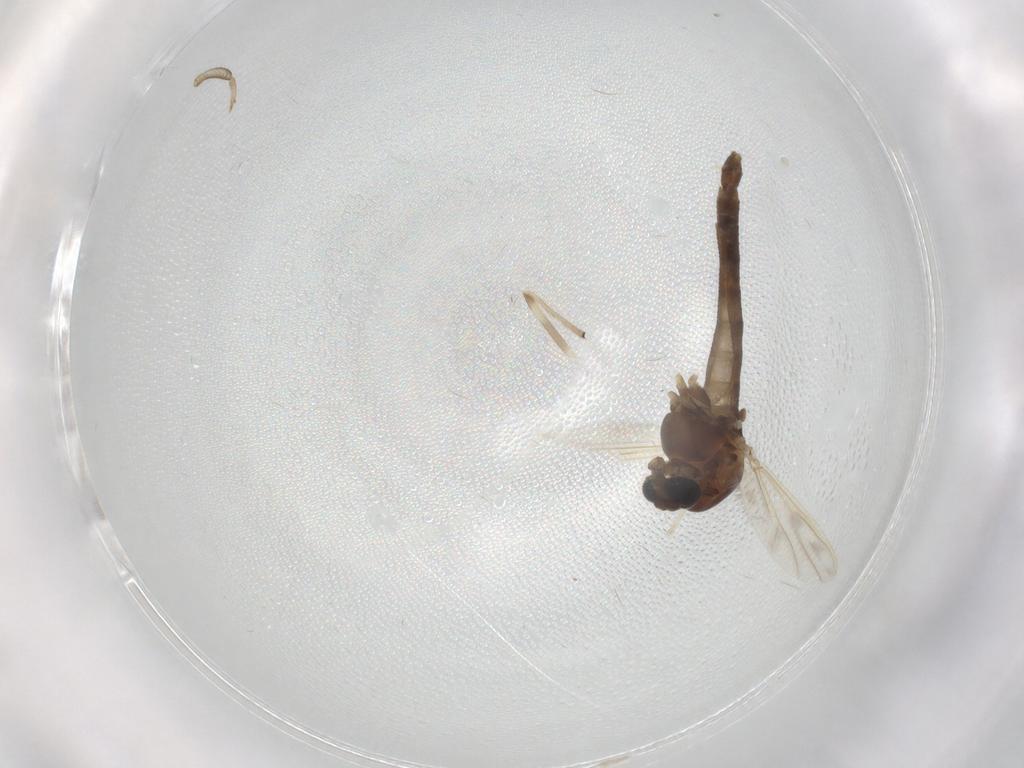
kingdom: Animalia
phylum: Arthropoda
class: Insecta
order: Diptera
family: Chironomidae
